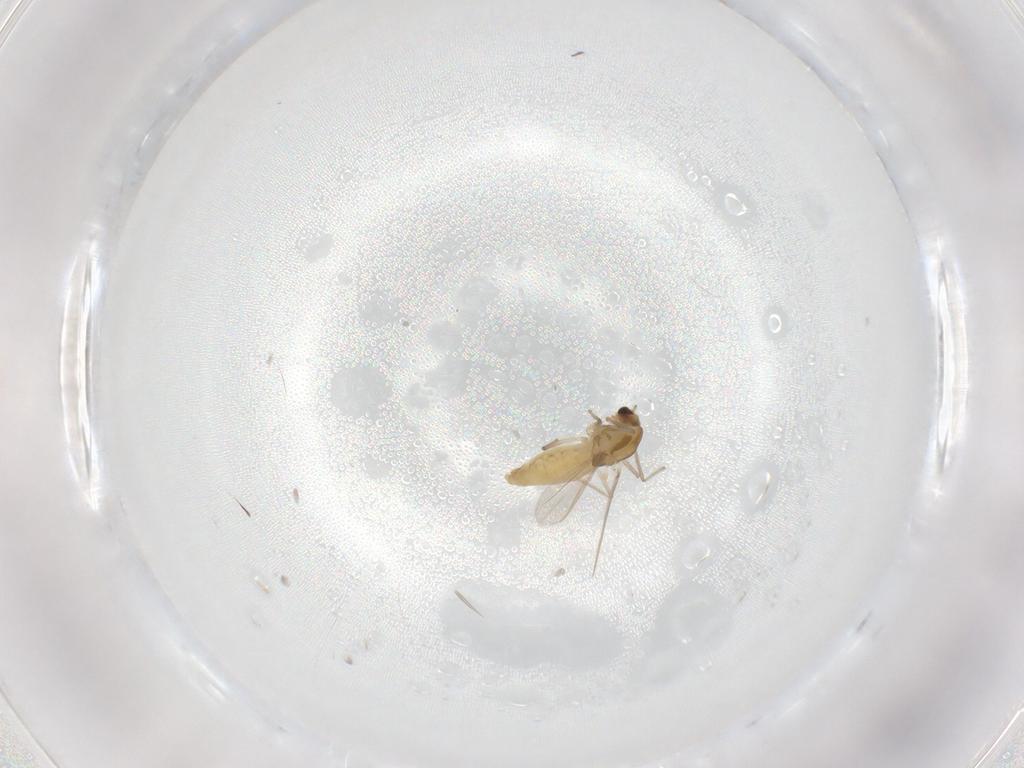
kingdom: Animalia
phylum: Arthropoda
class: Insecta
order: Diptera
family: Chironomidae
